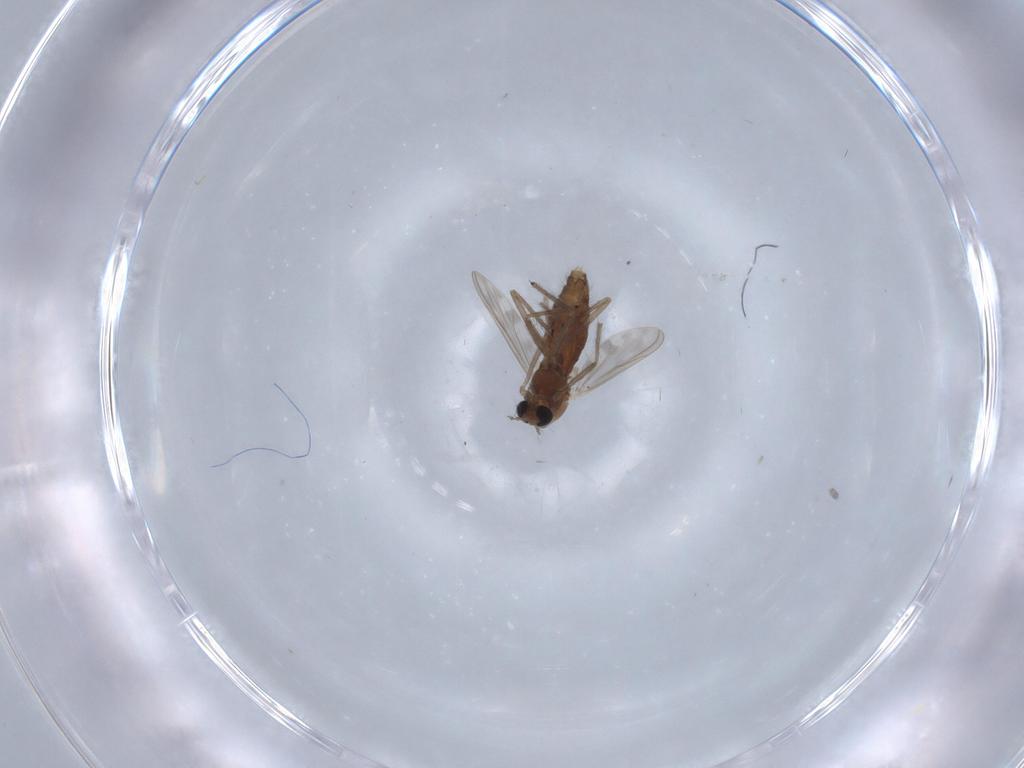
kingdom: Animalia
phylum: Arthropoda
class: Insecta
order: Diptera
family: Chironomidae
